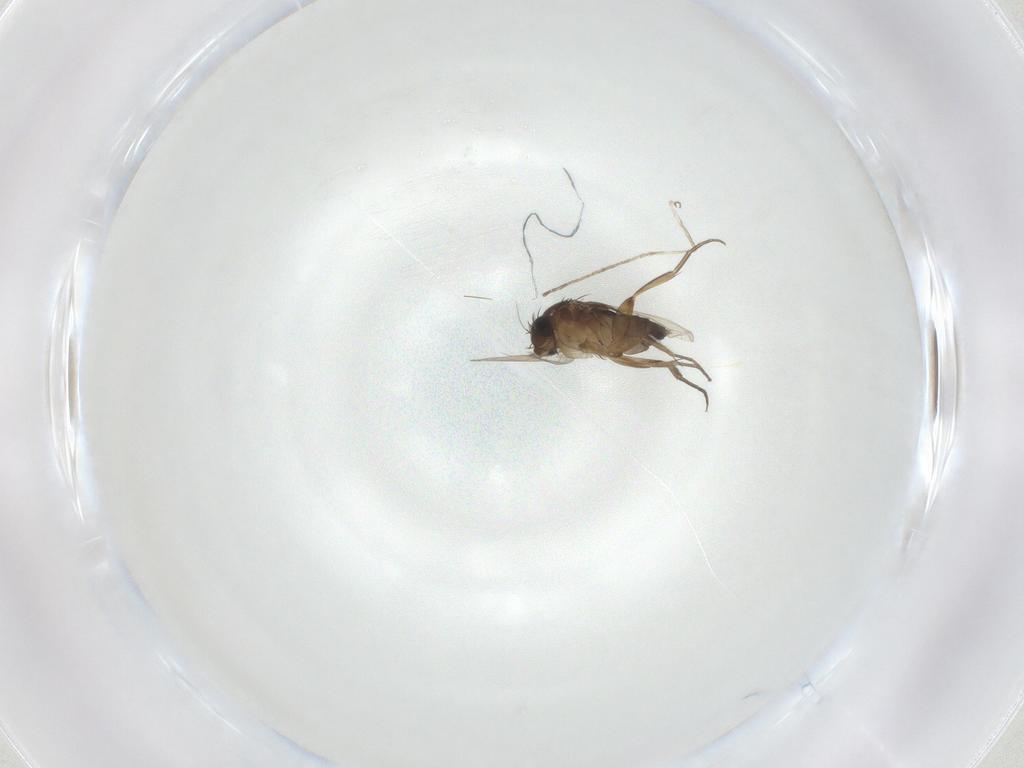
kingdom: Animalia
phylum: Arthropoda
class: Insecta
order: Diptera
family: Phoridae
